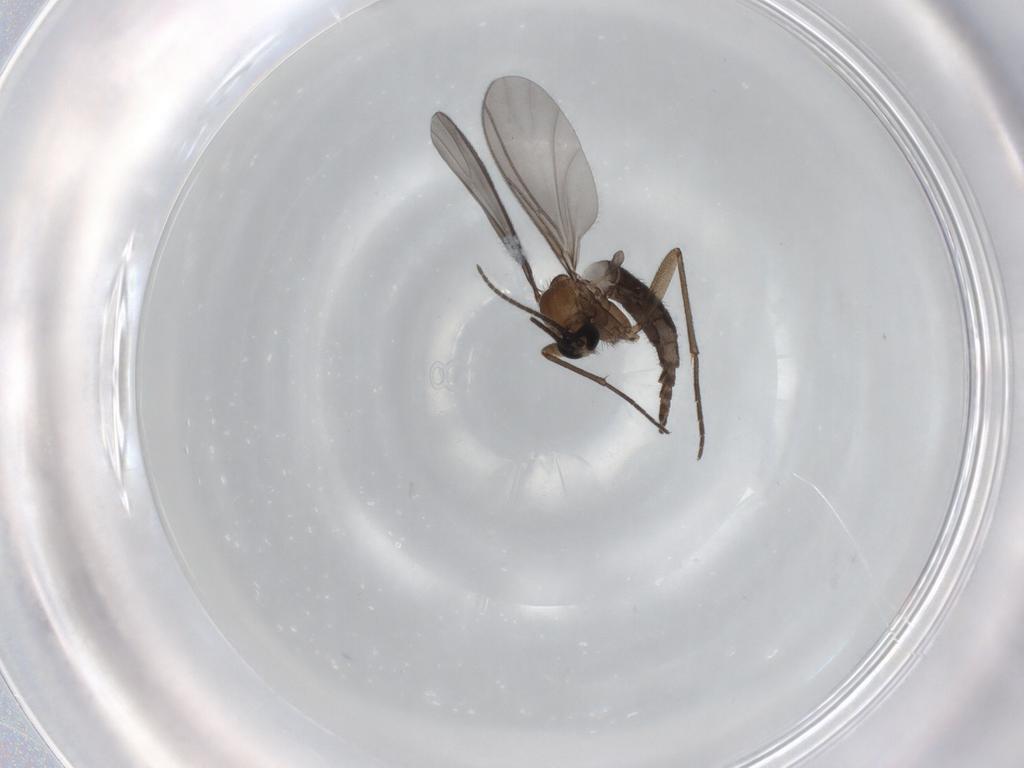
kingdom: Animalia
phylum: Arthropoda
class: Insecta
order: Diptera
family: Sciaridae
